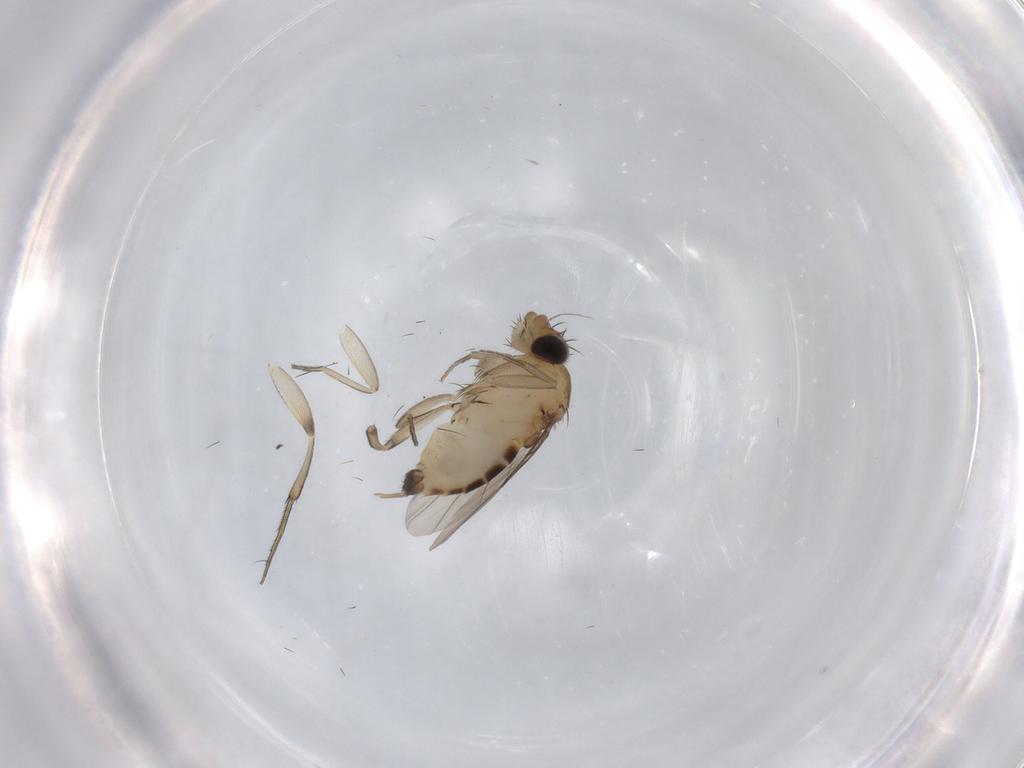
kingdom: Animalia
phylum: Arthropoda
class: Insecta
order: Diptera
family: Phoridae
